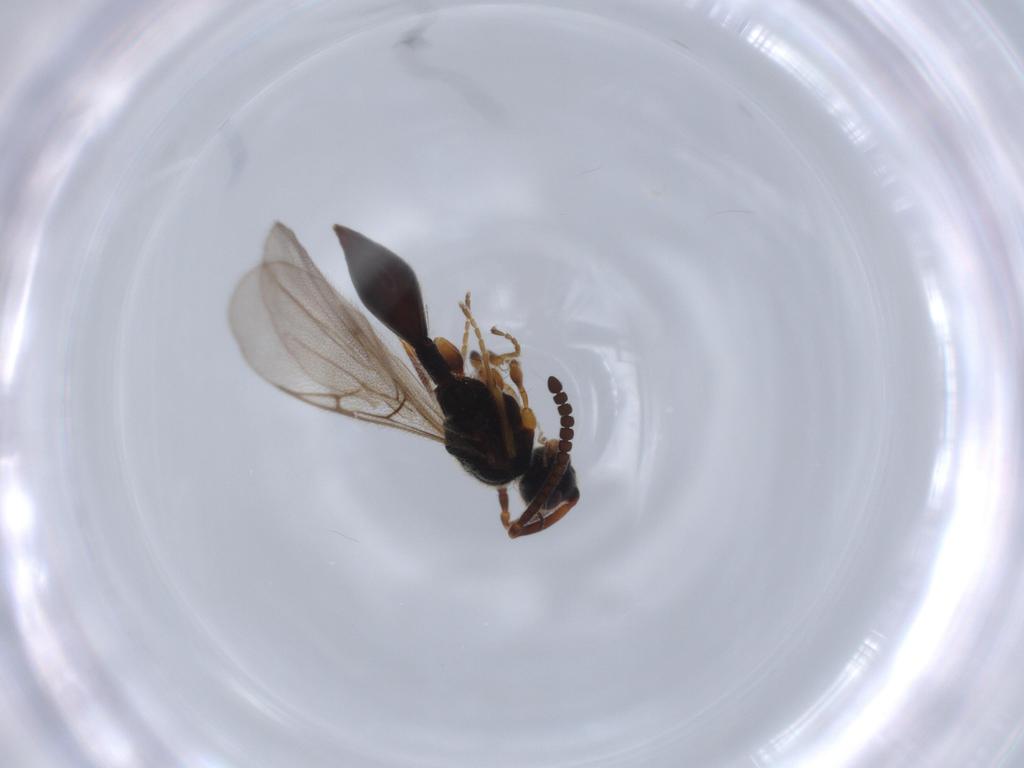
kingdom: Animalia
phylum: Arthropoda
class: Insecta
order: Hymenoptera
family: Diapriidae
